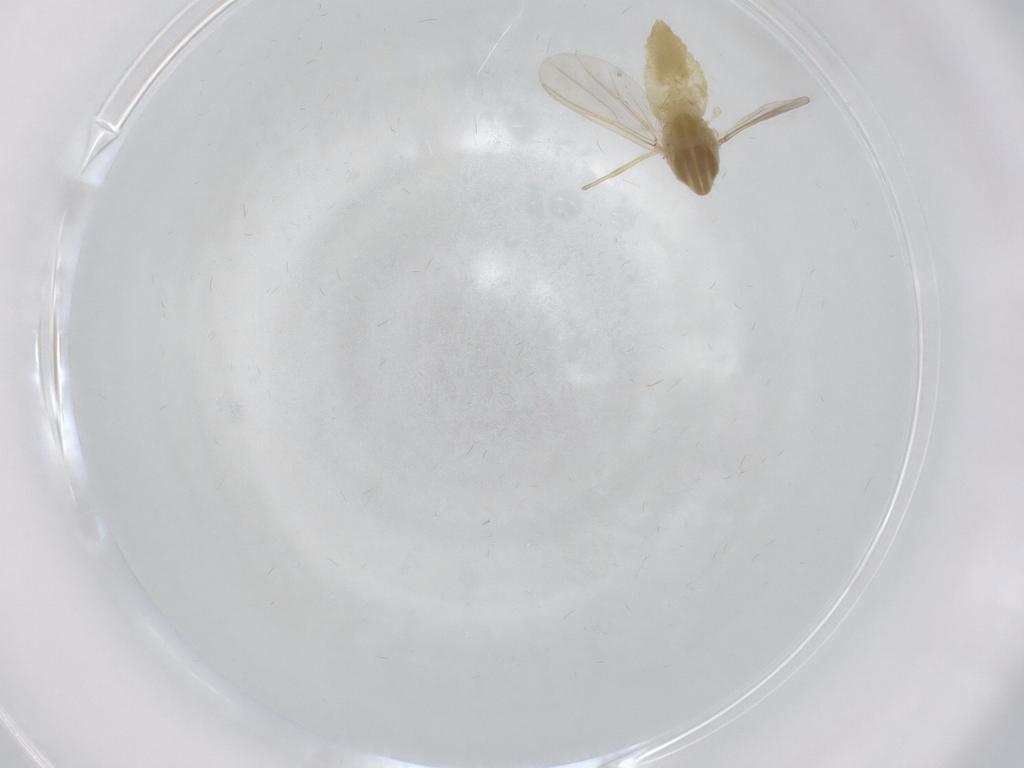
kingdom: Animalia
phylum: Arthropoda
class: Insecta
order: Diptera
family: Chironomidae
